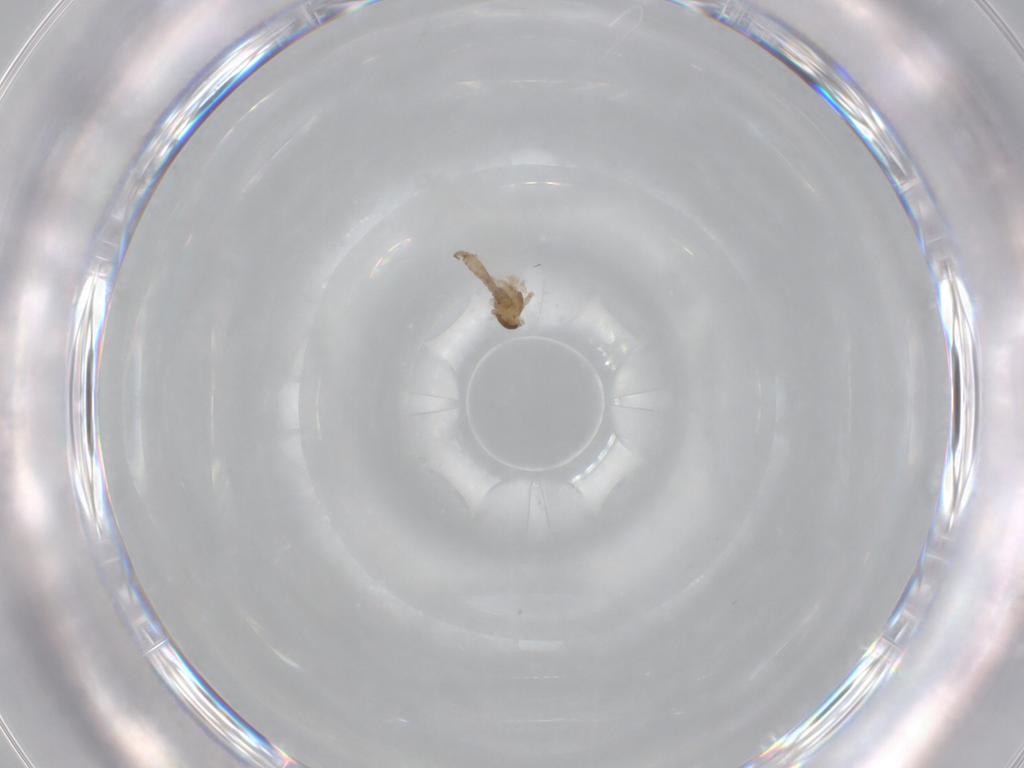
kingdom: Animalia
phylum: Arthropoda
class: Insecta
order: Diptera
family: Cecidomyiidae
